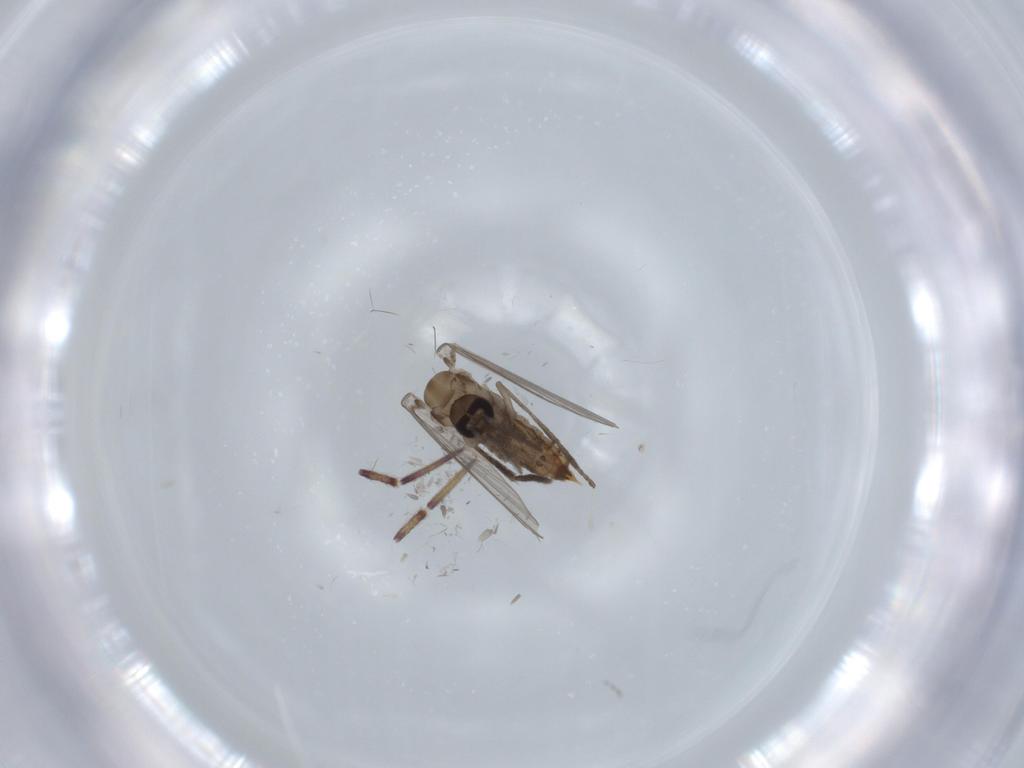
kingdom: Animalia
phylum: Arthropoda
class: Insecta
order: Diptera
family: Psychodidae
